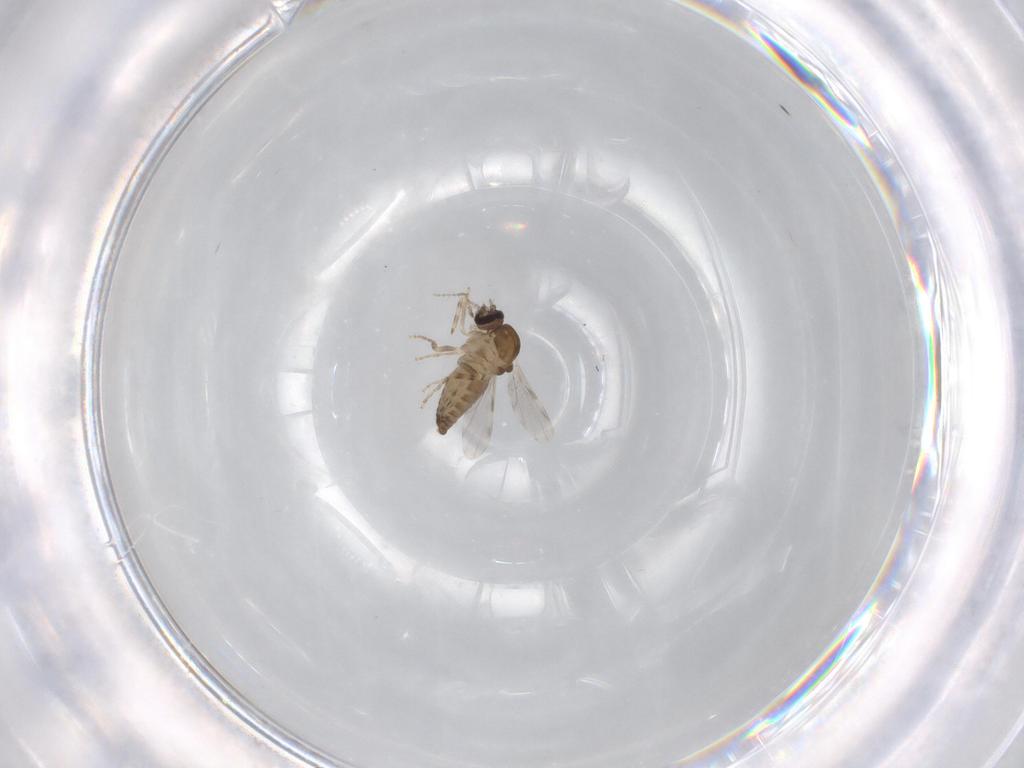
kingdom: Animalia
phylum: Arthropoda
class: Insecta
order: Diptera
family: Ceratopogonidae
